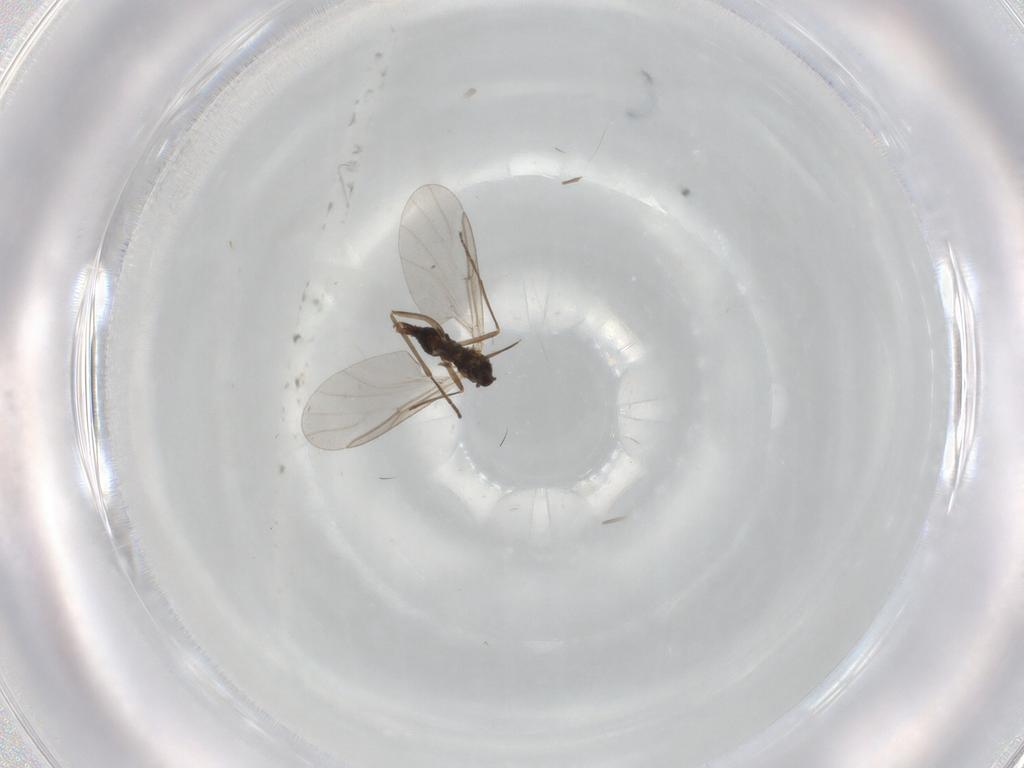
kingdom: Animalia
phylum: Arthropoda
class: Insecta
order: Diptera
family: Cecidomyiidae
